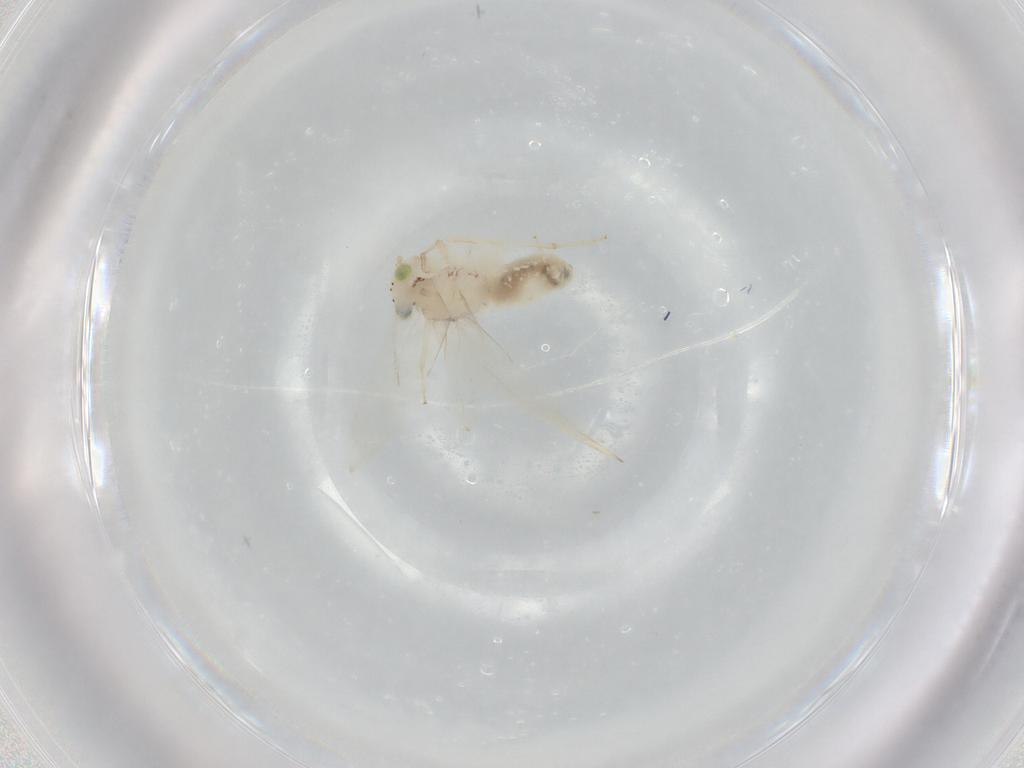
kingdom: Animalia
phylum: Arthropoda
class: Insecta
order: Psocodea
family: Lepidopsocidae
